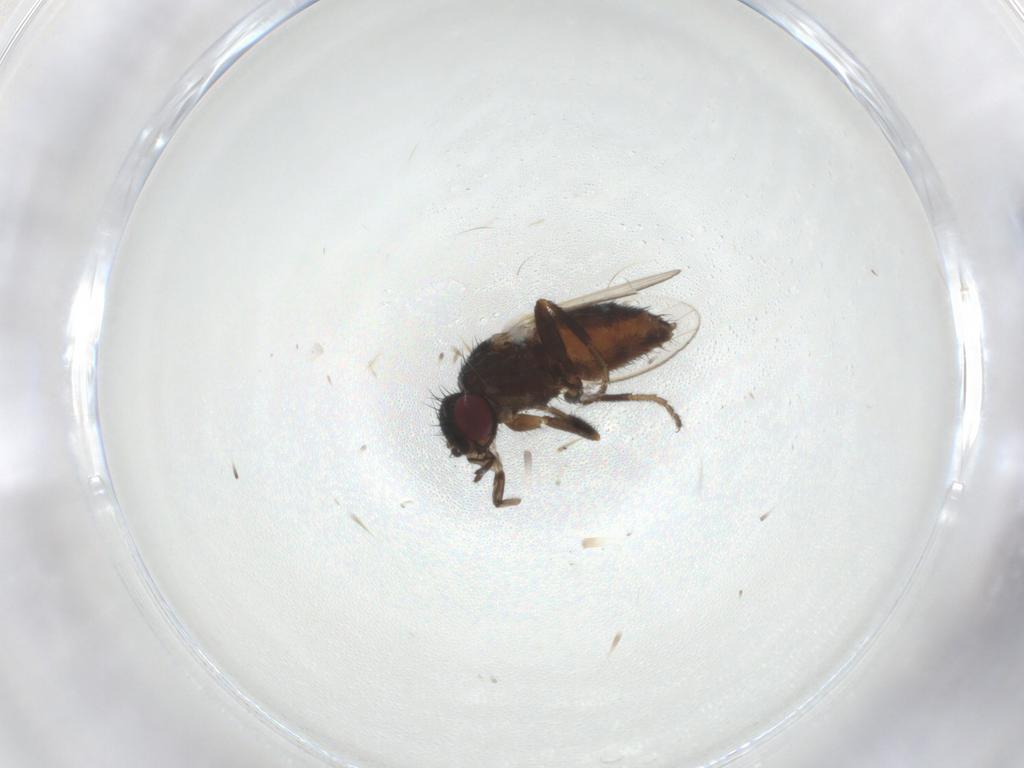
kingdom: Animalia
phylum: Arthropoda
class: Insecta
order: Diptera
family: Milichiidae
